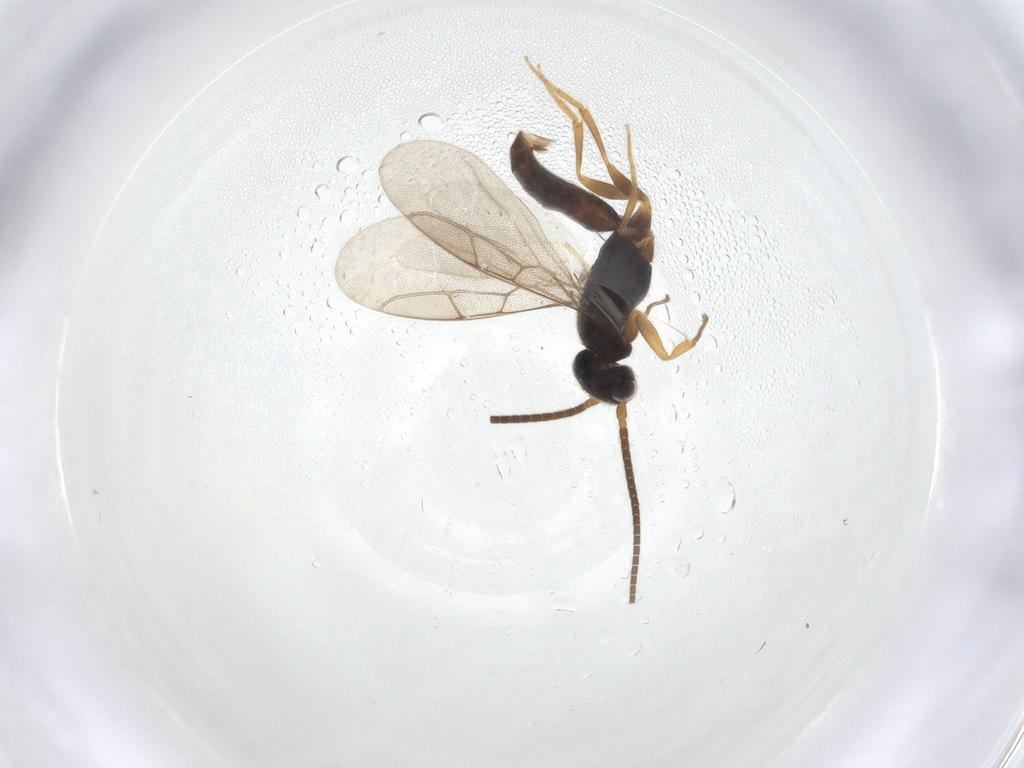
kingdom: Animalia
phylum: Arthropoda
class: Insecta
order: Hymenoptera
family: Sclerogibbidae
